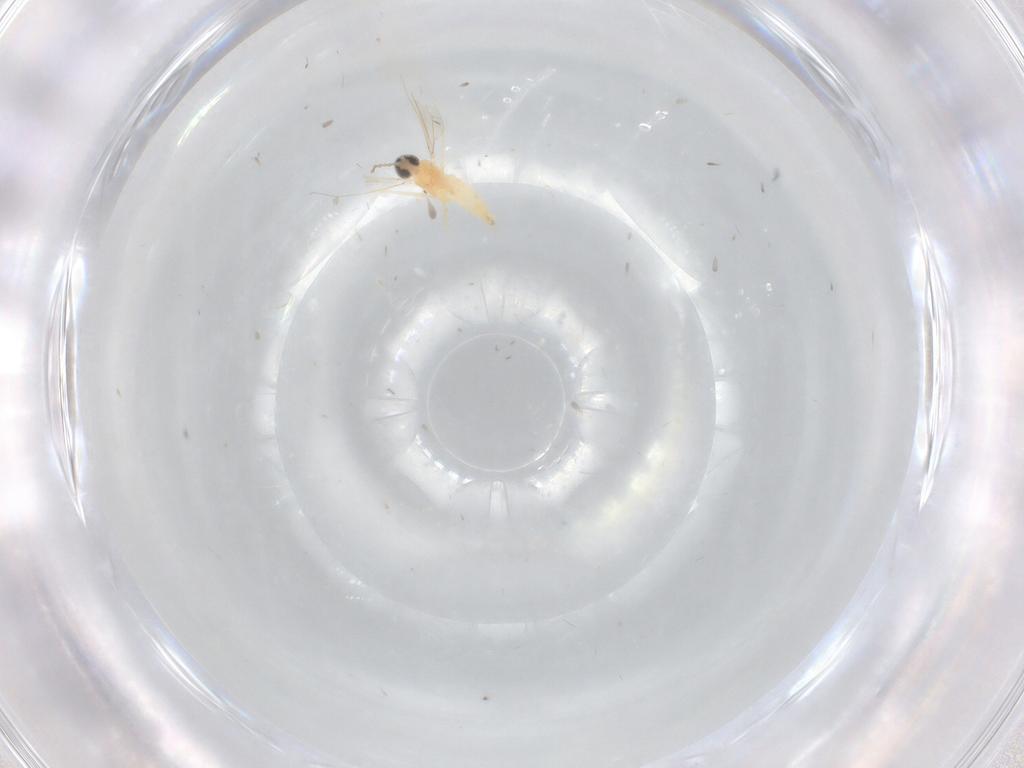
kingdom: Animalia
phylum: Arthropoda
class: Insecta
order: Diptera
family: Muscidae
